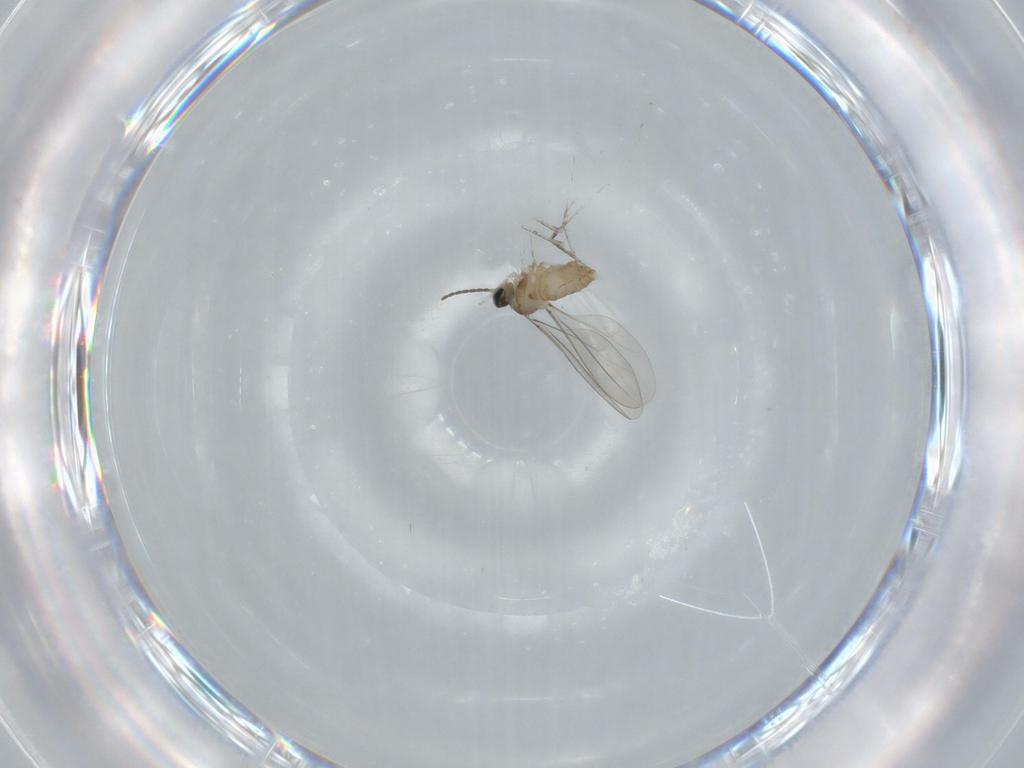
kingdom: Animalia
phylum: Arthropoda
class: Insecta
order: Diptera
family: Cecidomyiidae
